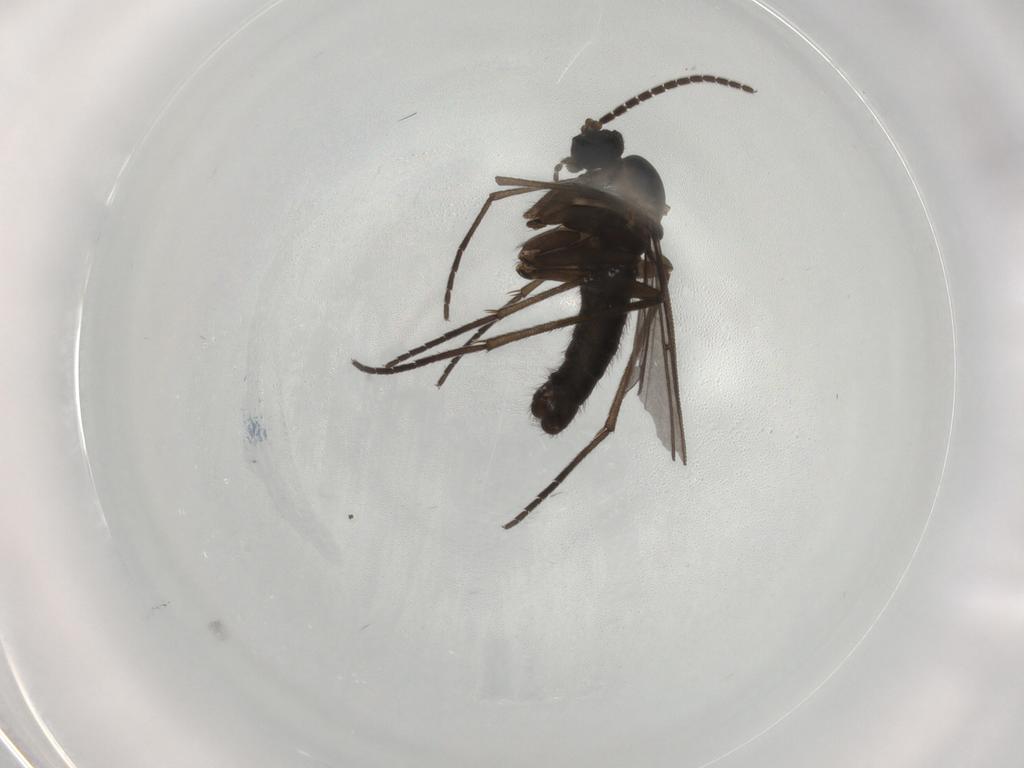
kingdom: Animalia
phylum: Arthropoda
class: Insecta
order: Diptera
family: Sciaridae
